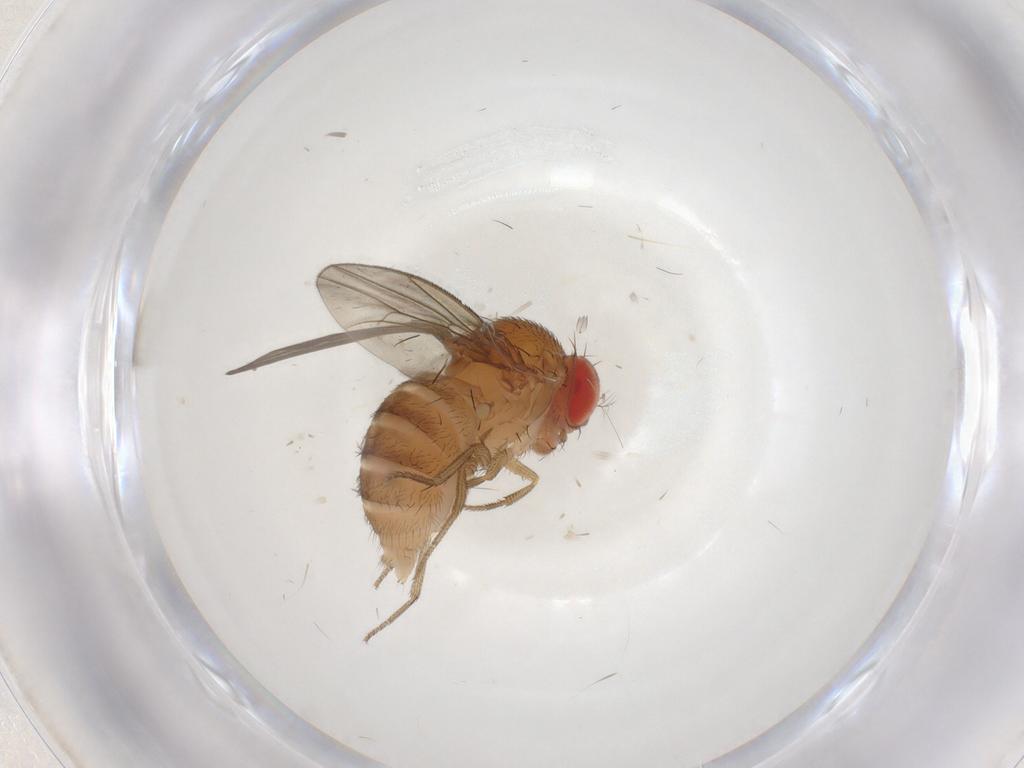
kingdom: Animalia
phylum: Arthropoda
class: Insecta
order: Diptera
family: Drosophilidae
